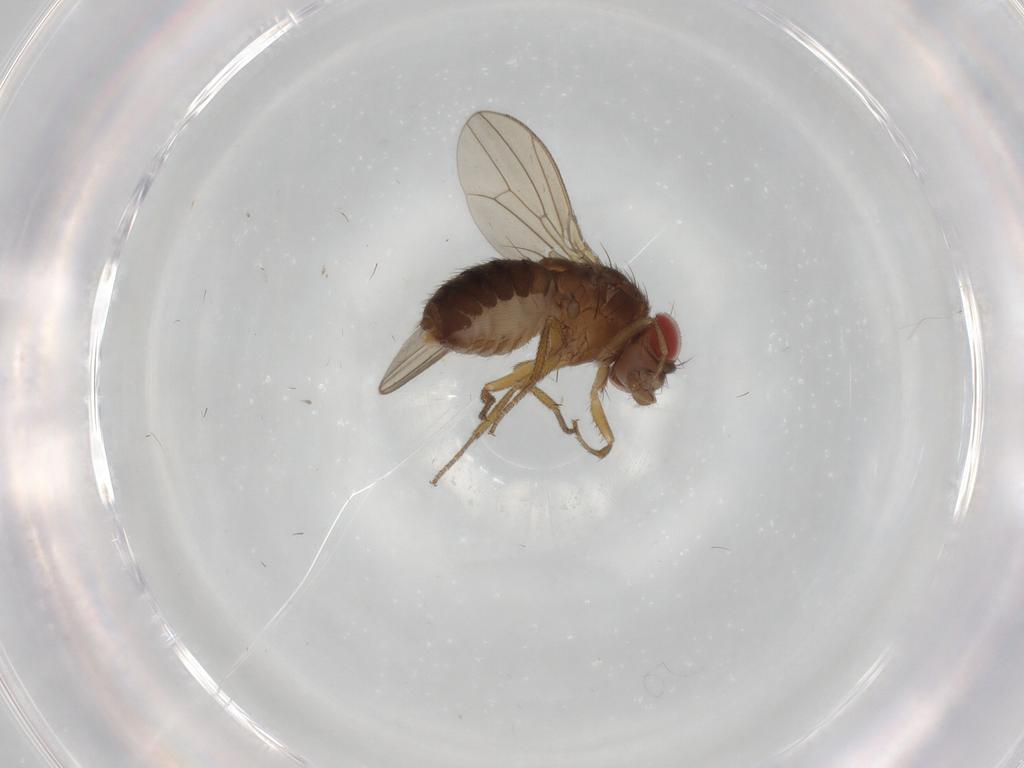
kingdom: Animalia
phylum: Arthropoda
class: Insecta
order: Diptera
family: Drosophilidae
